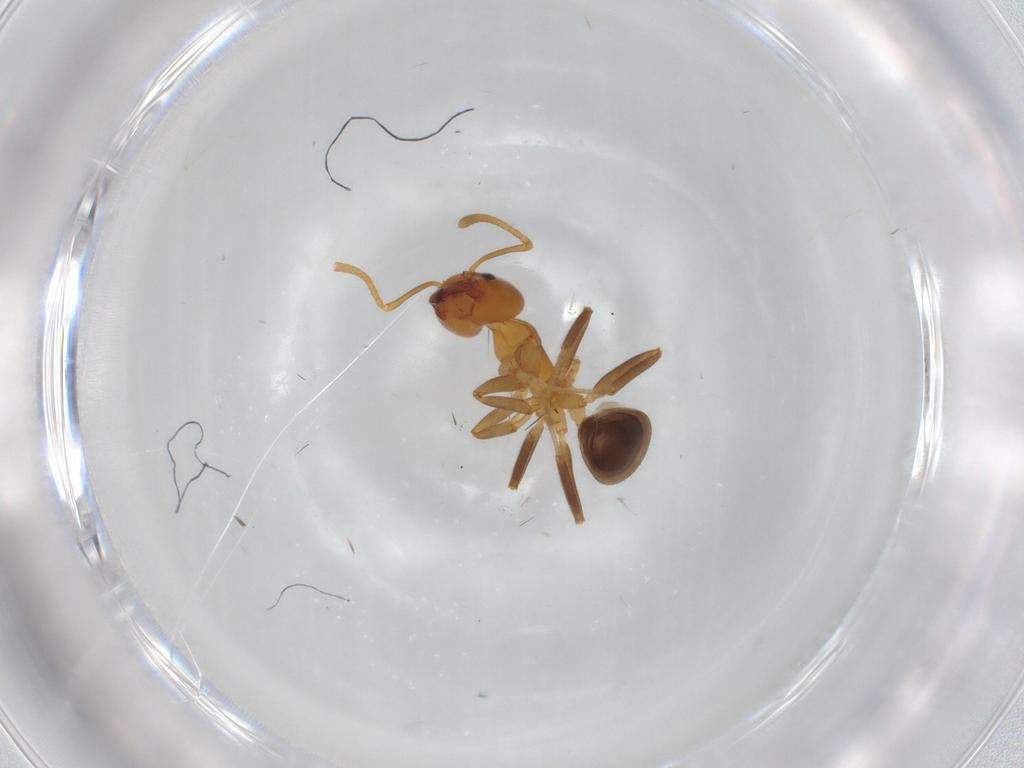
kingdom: Animalia
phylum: Arthropoda
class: Insecta
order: Hymenoptera
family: Formicidae
